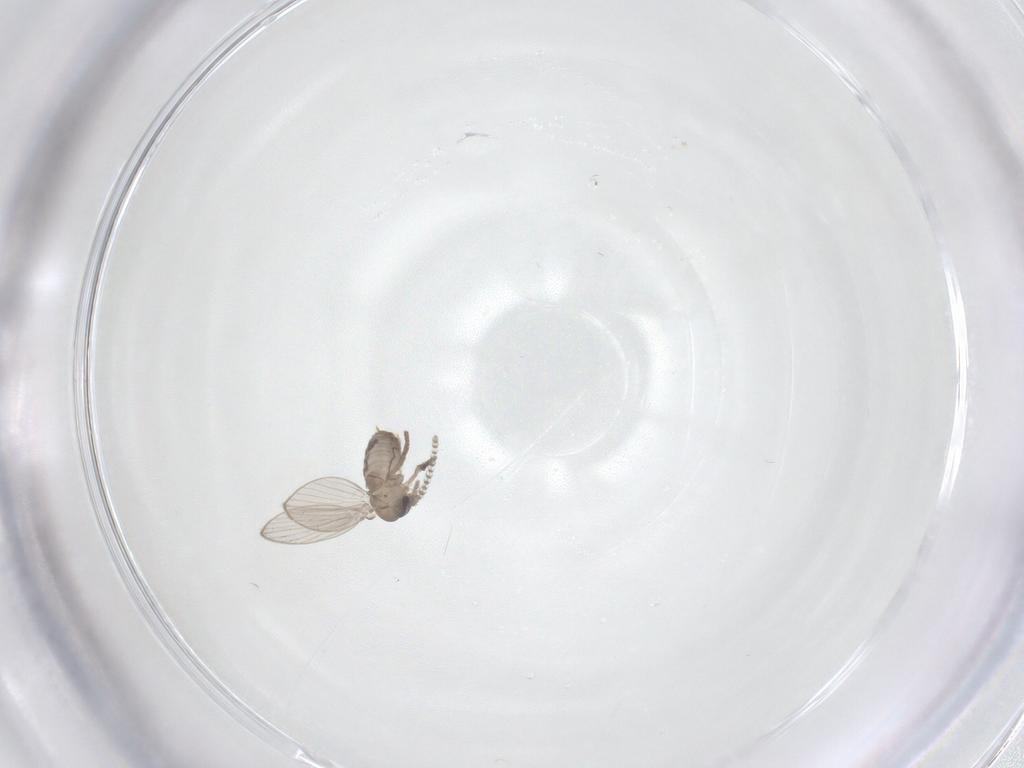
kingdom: Animalia
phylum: Arthropoda
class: Insecta
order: Diptera
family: Psychodidae
